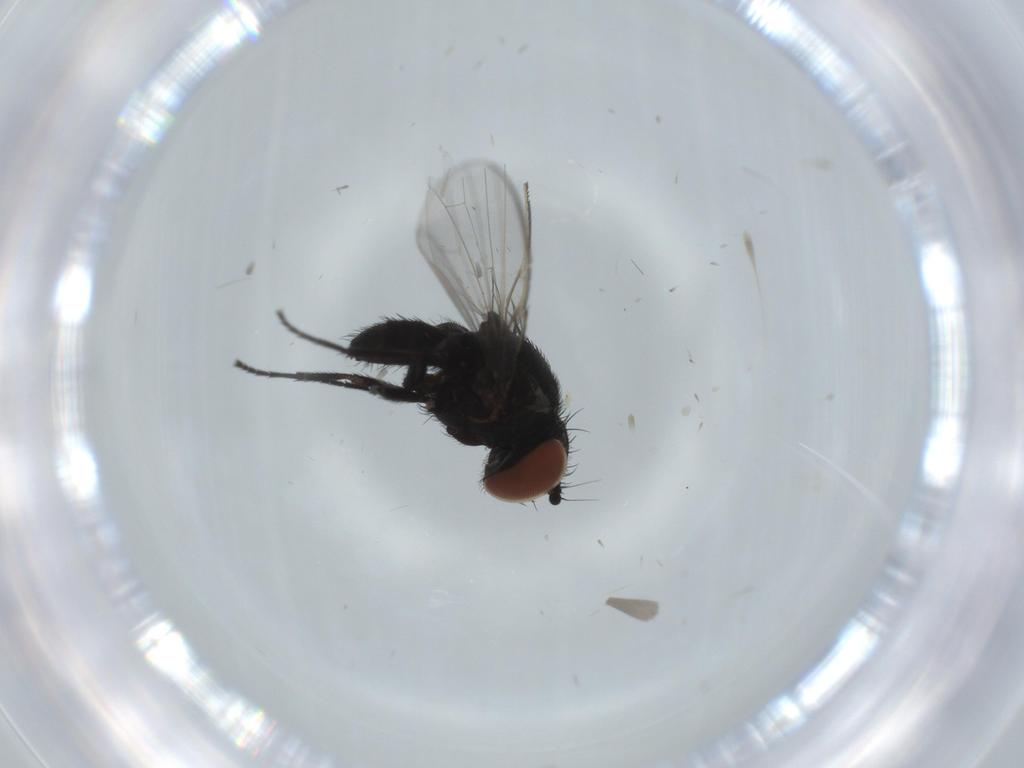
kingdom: Animalia
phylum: Arthropoda
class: Insecta
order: Diptera
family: Milichiidae
